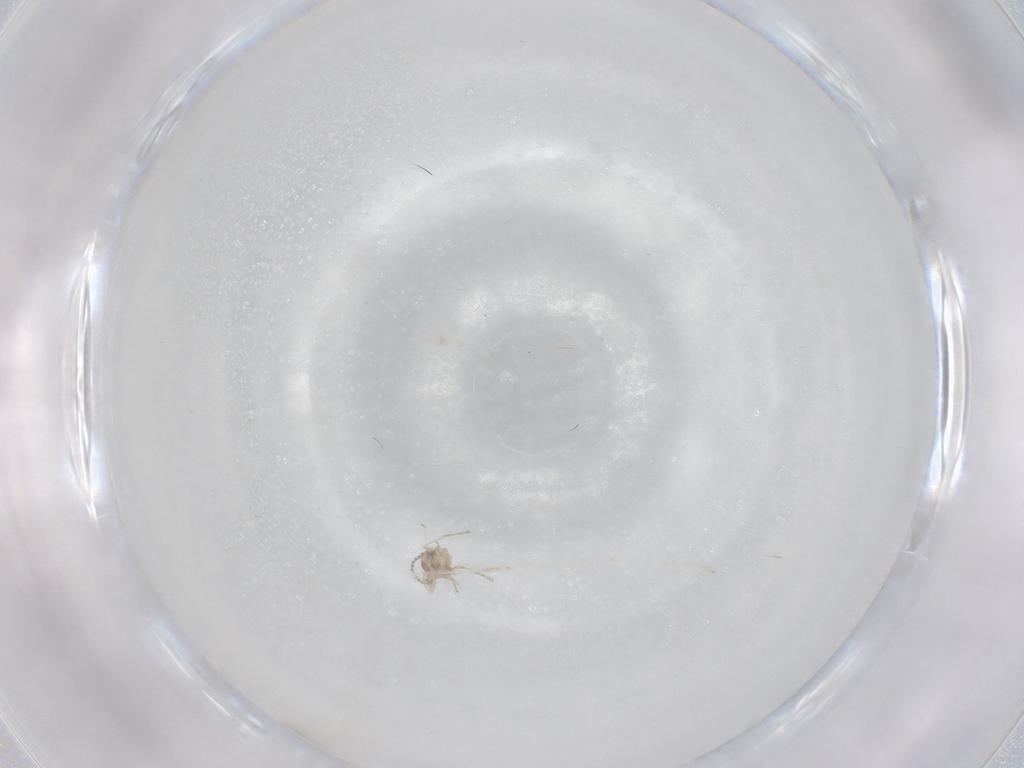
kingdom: Animalia
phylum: Arthropoda
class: Insecta
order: Diptera
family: Cecidomyiidae
